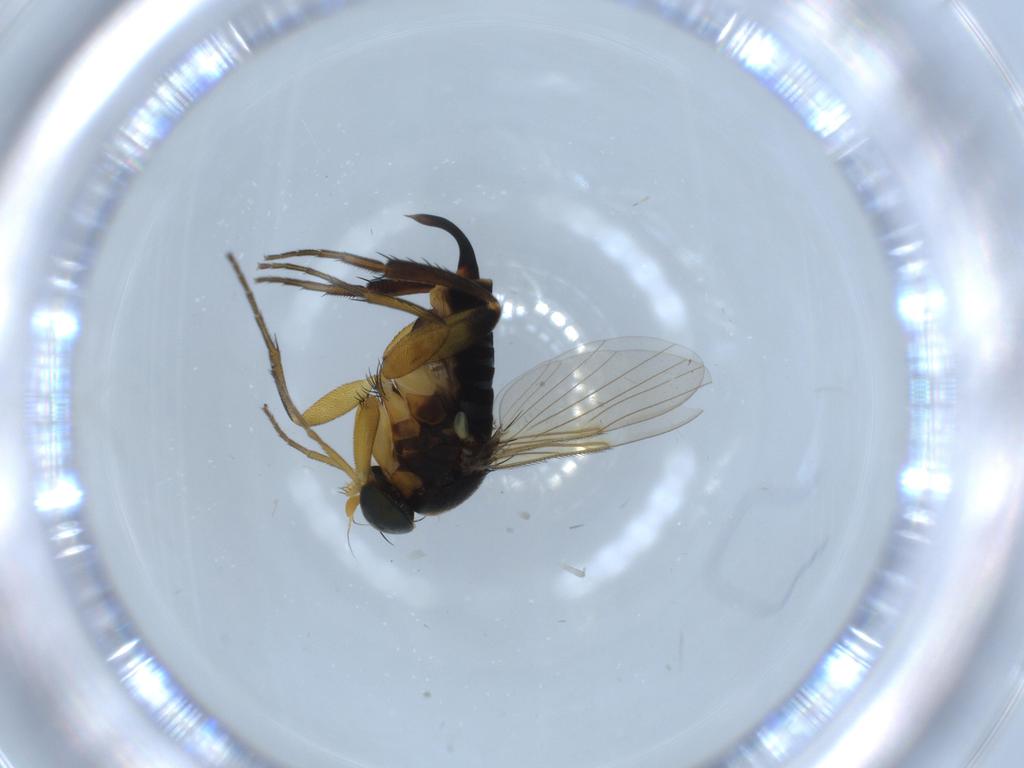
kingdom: Animalia
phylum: Arthropoda
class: Insecta
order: Diptera
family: Phoridae
